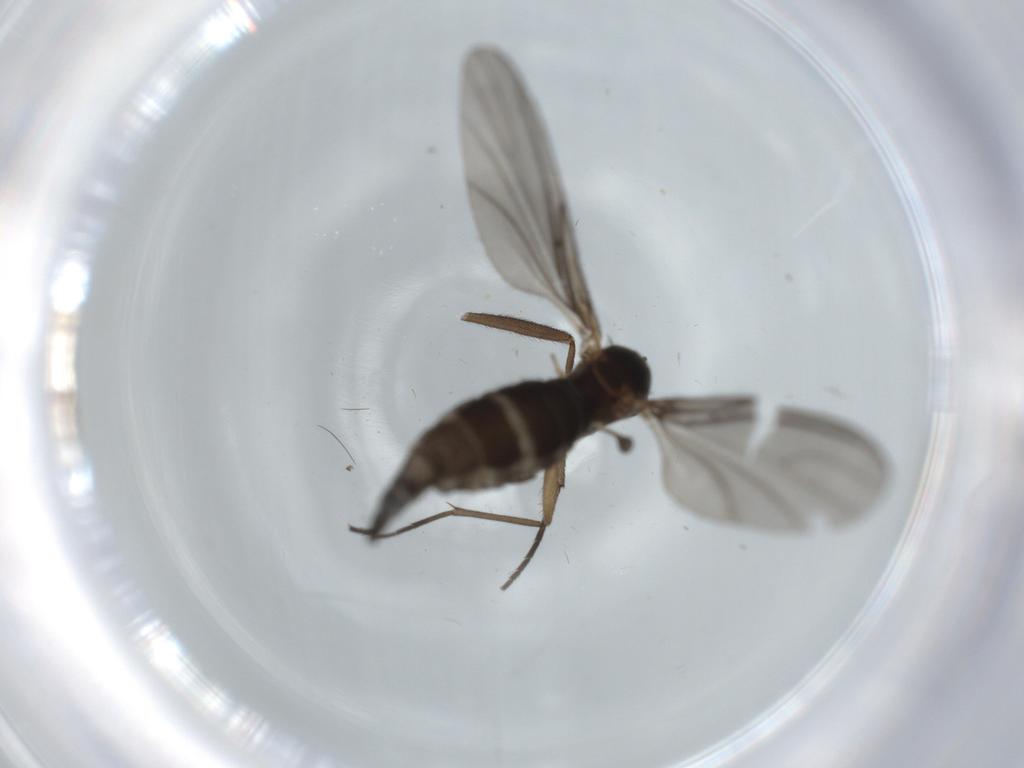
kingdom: Animalia
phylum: Arthropoda
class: Insecta
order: Diptera
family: Sciaridae
